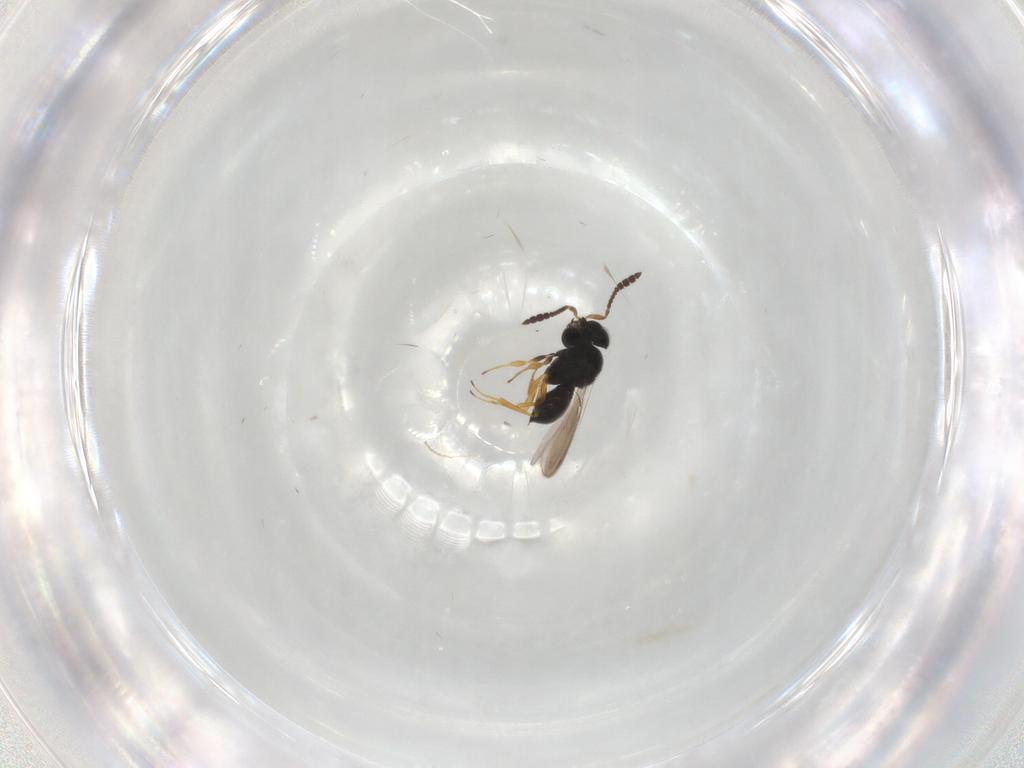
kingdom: Animalia
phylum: Arthropoda
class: Insecta
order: Hymenoptera
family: Scelionidae
